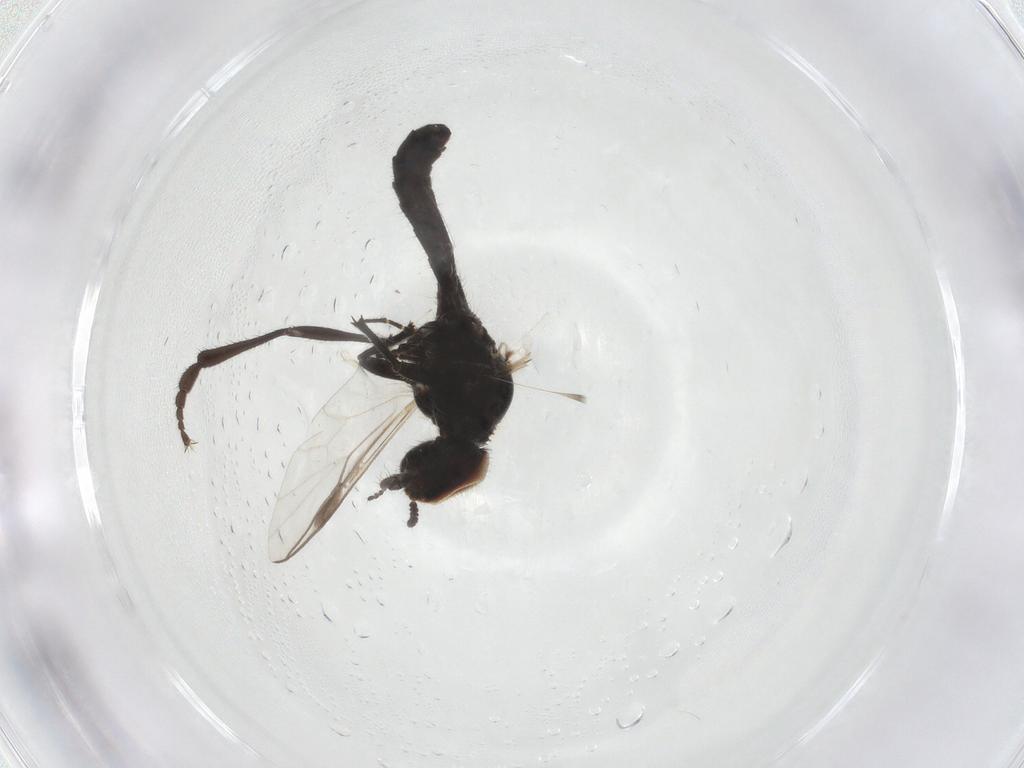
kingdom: Animalia
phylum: Arthropoda
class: Insecta
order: Diptera
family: Bibionidae
